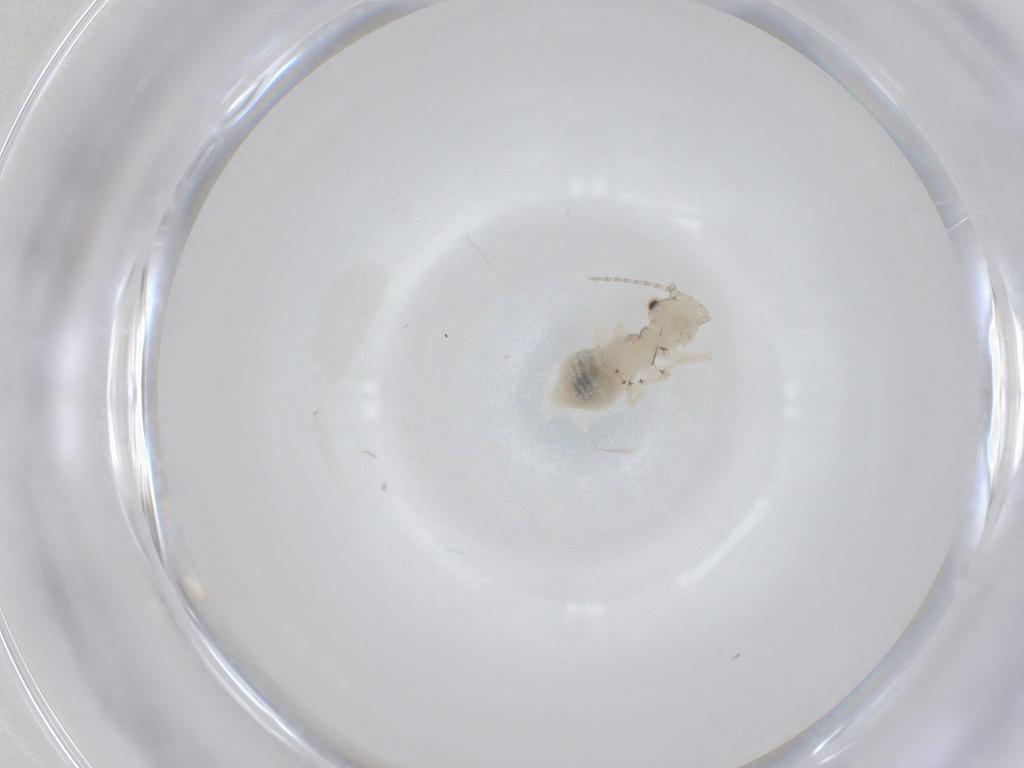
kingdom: Animalia
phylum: Arthropoda
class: Insecta
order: Psocodea
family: Amphipsocidae
